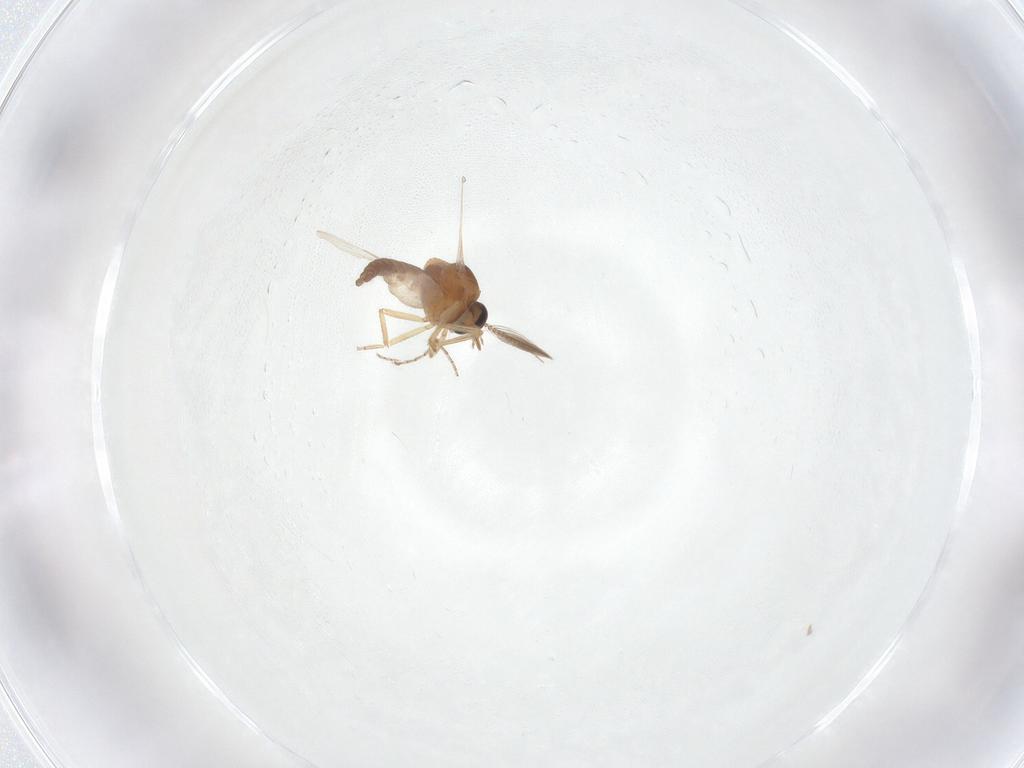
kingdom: Animalia
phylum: Arthropoda
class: Insecta
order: Diptera
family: Ceratopogonidae
